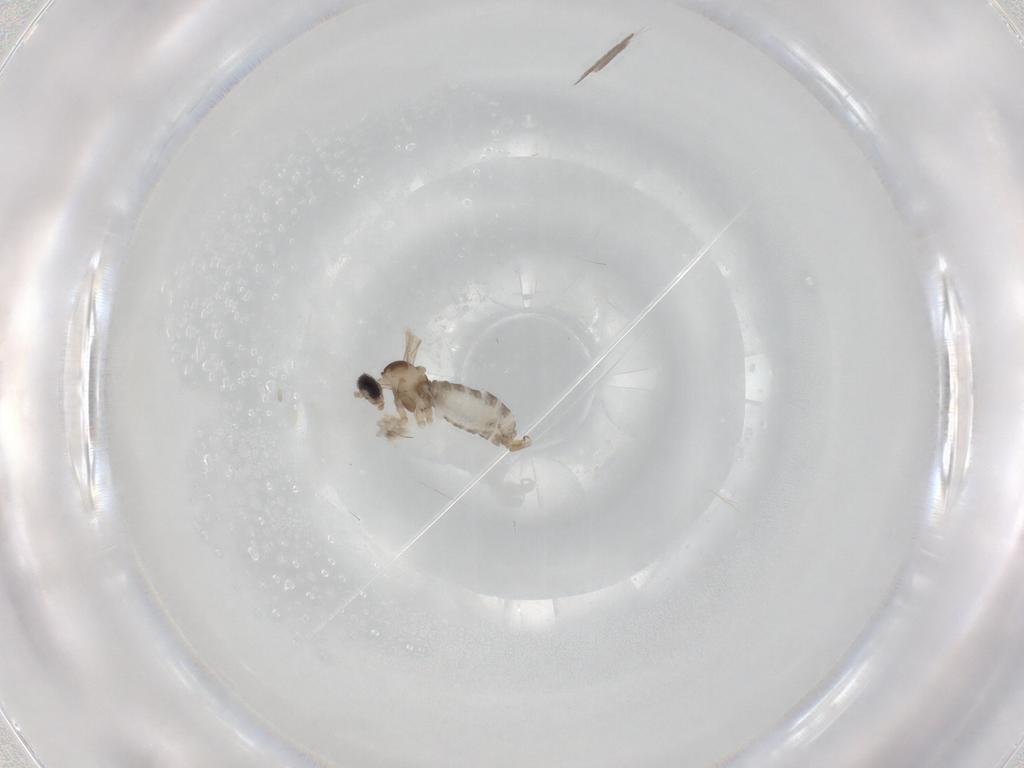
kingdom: Animalia
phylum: Arthropoda
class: Insecta
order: Diptera
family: Cecidomyiidae
